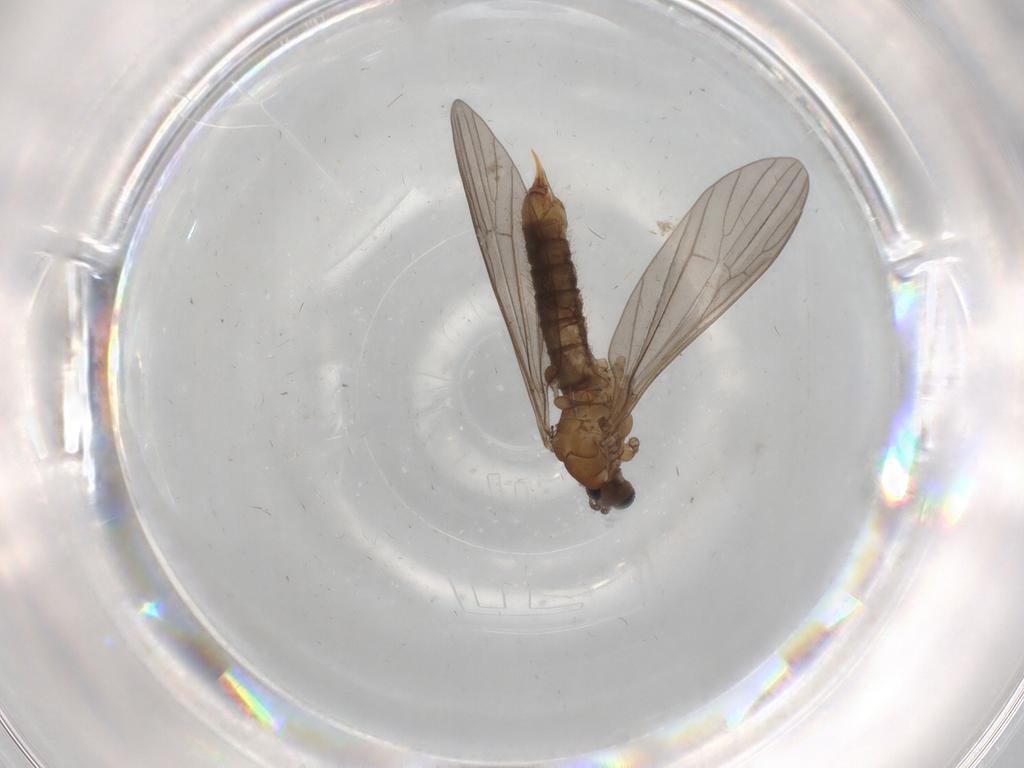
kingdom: Animalia
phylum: Arthropoda
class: Insecta
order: Diptera
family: Limoniidae
